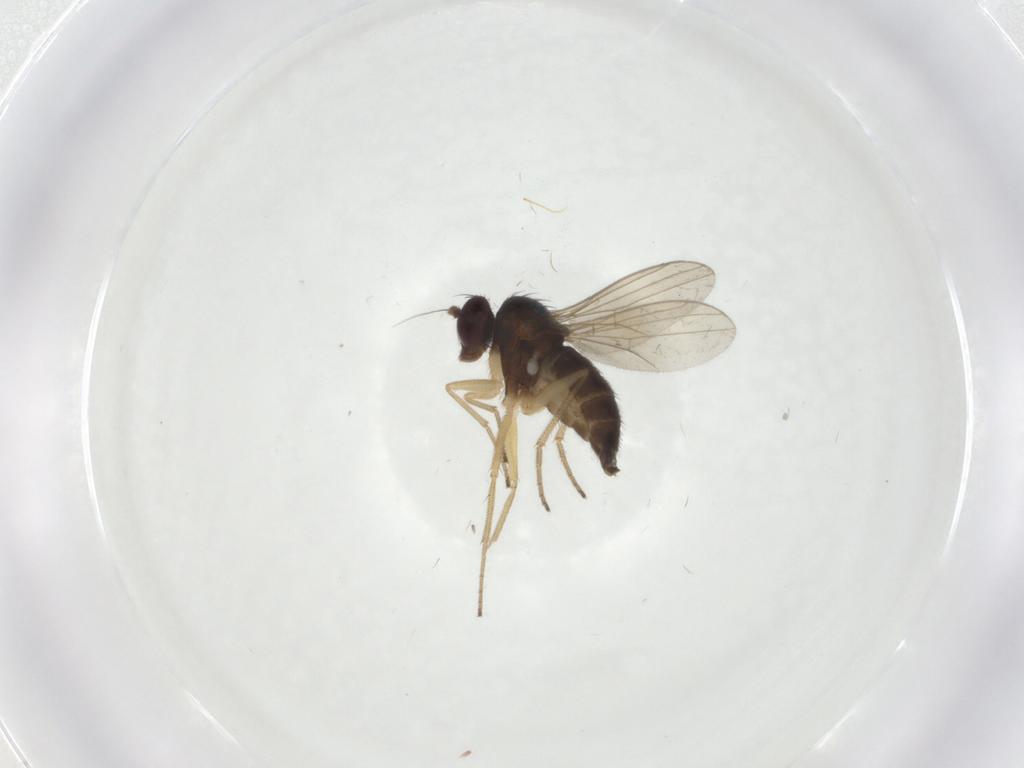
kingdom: Animalia
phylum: Arthropoda
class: Insecta
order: Diptera
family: Dolichopodidae
